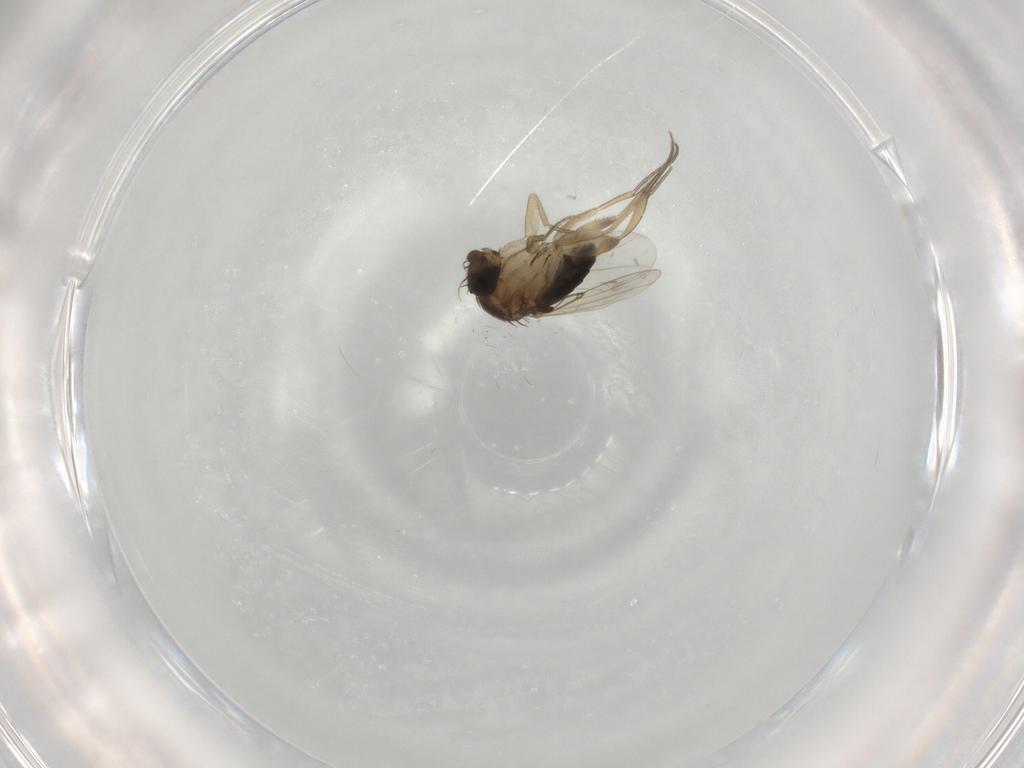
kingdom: Animalia
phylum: Arthropoda
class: Insecta
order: Diptera
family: Phoridae
